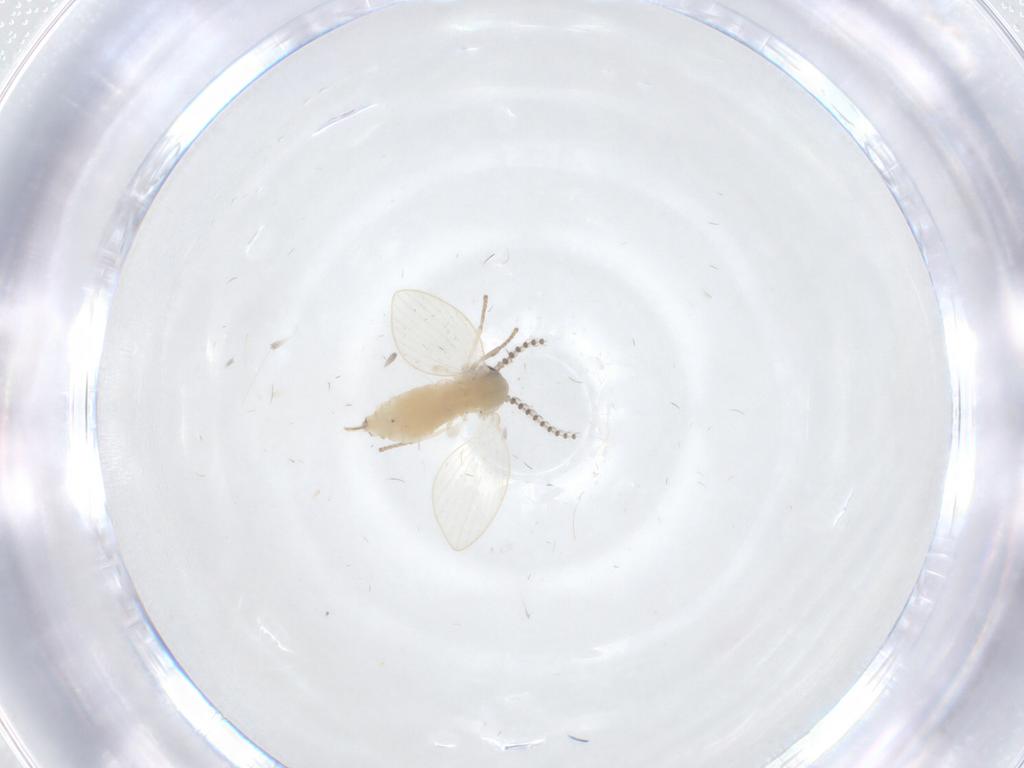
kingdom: Animalia
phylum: Arthropoda
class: Insecta
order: Diptera
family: Psychodidae
